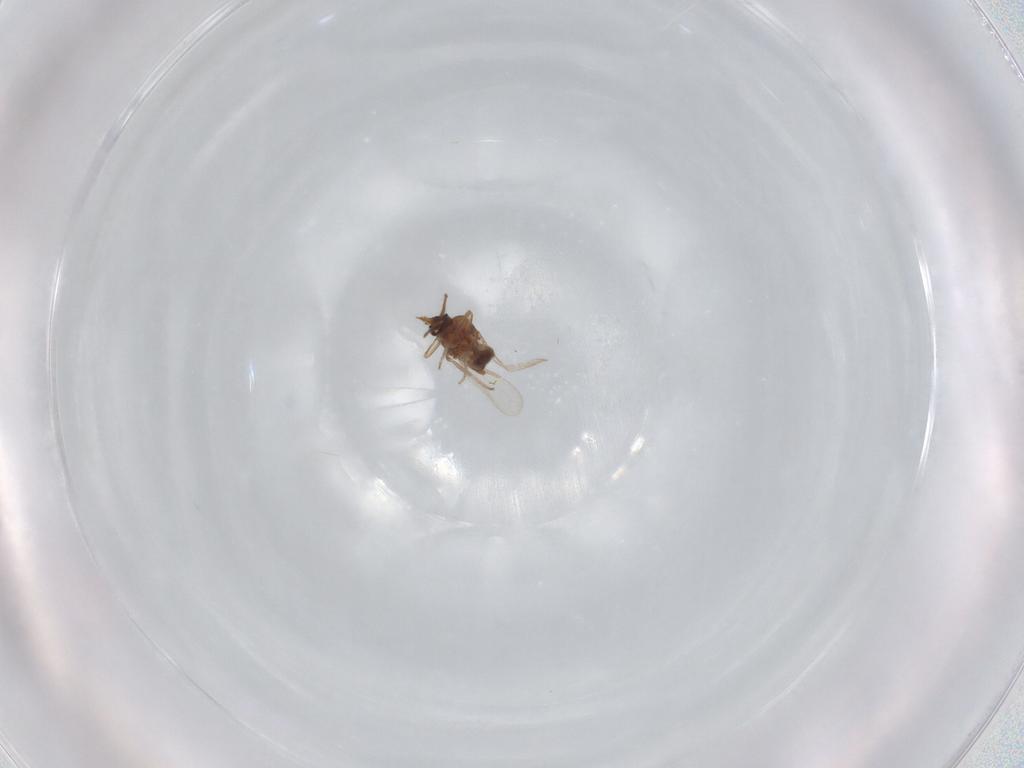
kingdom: Animalia
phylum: Arthropoda
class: Insecta
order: Diptera
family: Ceratopogonidae
